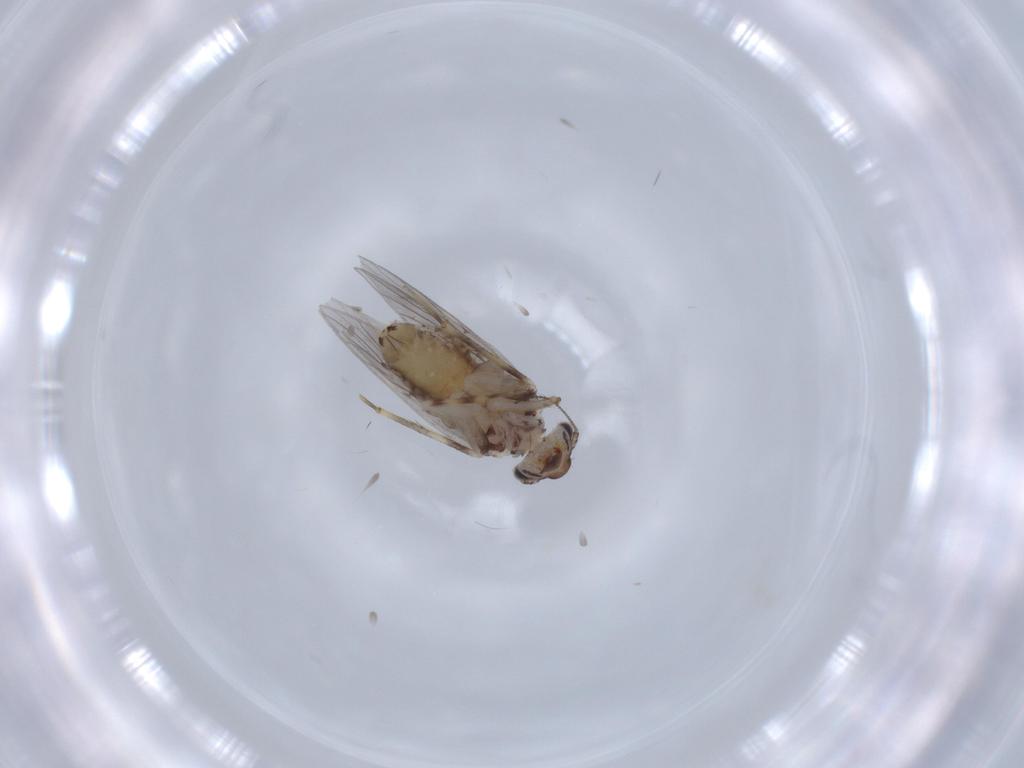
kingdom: Animalia
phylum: Arthropoda
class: Insecta
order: Psocodea
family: Lepidopsocidae
